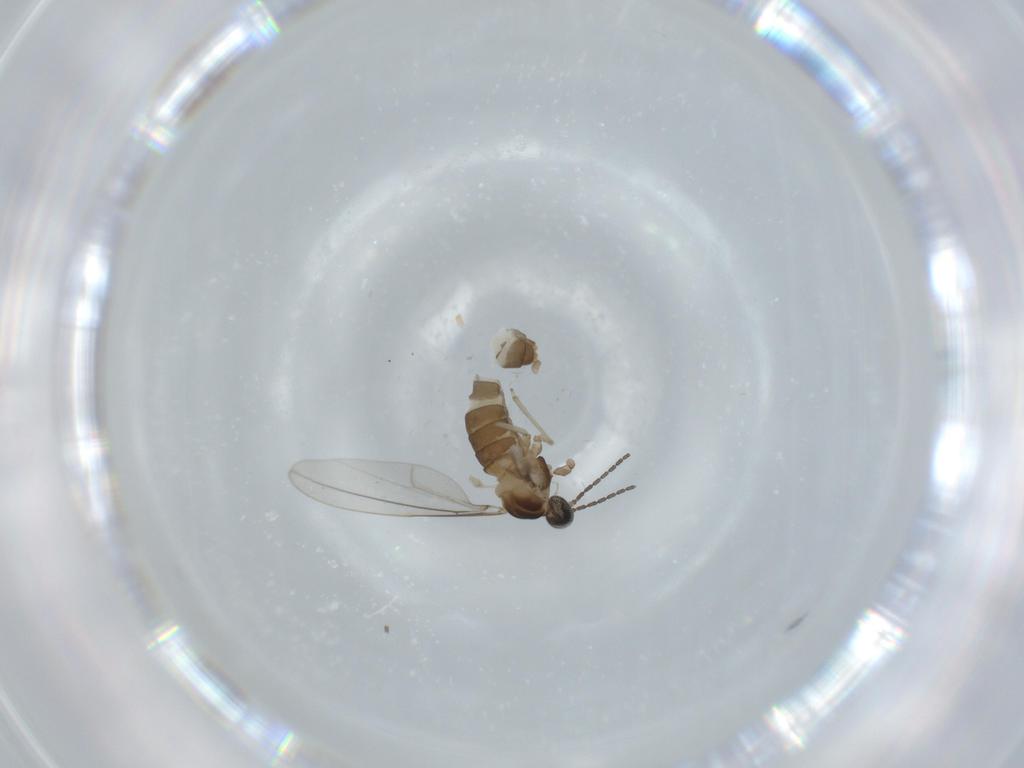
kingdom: Animalia
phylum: Arthropoda
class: Insecta
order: Diptera
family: Cecidomyiidae
